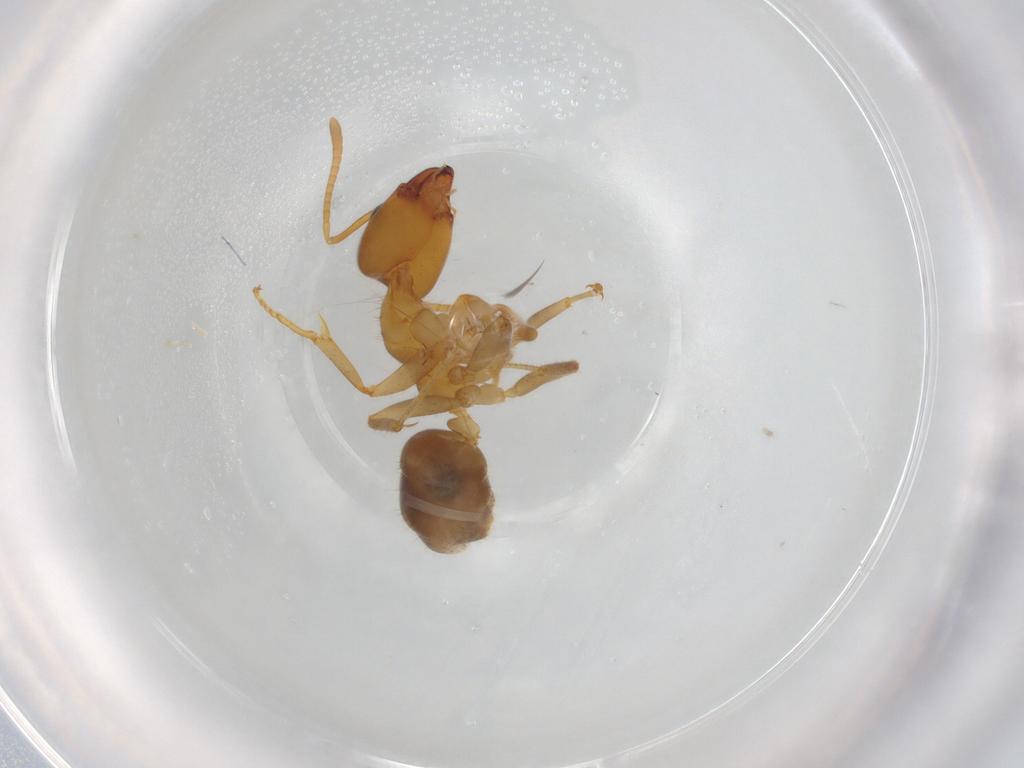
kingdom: Animalia
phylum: Arthropoda
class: Insecta
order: Hymenoptera
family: Formicidae
